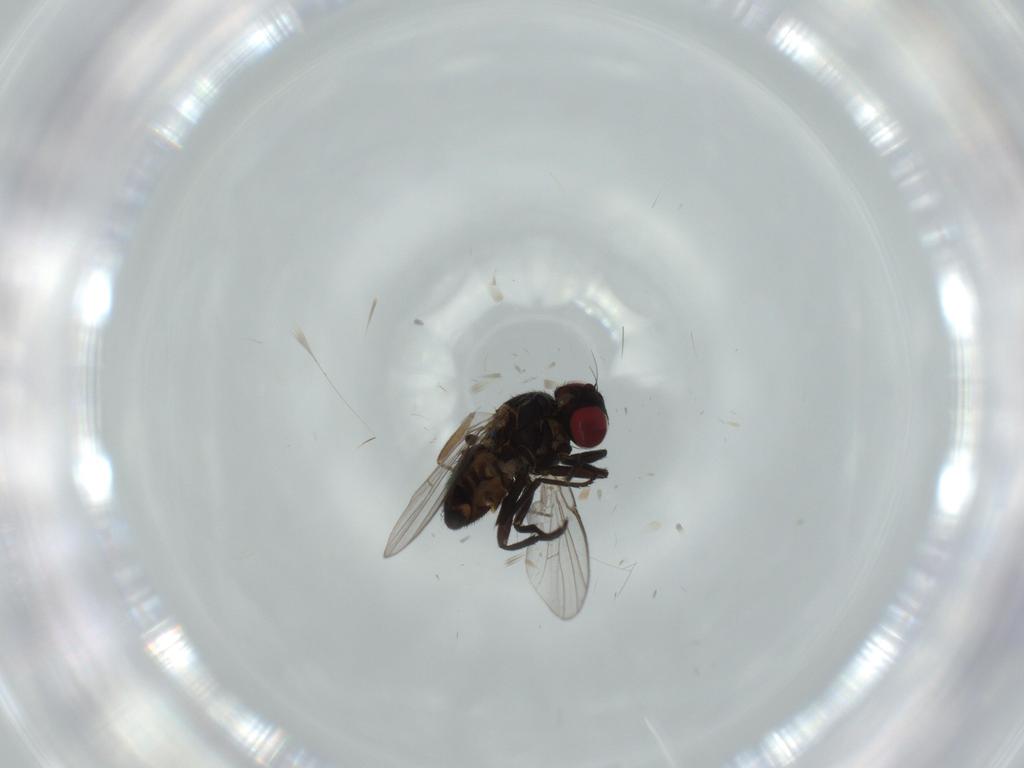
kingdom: Animalia
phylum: Arthropoda
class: Insecta
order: Diptera
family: Agromyzidae
